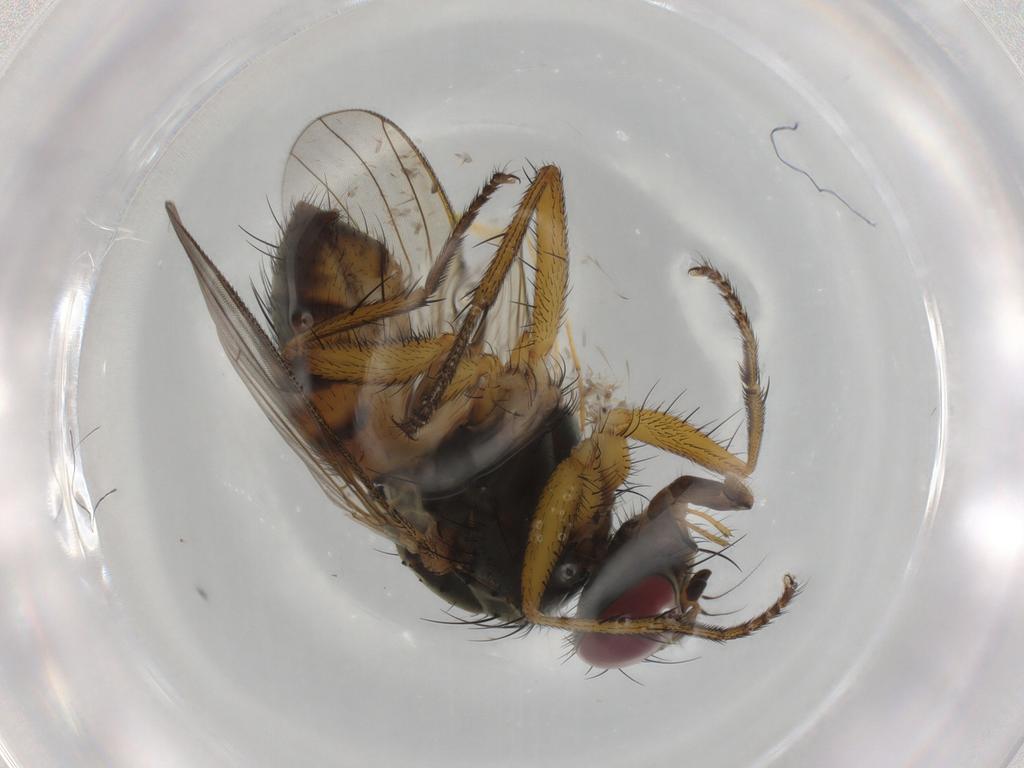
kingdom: Animalia
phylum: Arthropoda
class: Insecta
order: Diptera
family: Muscidae
